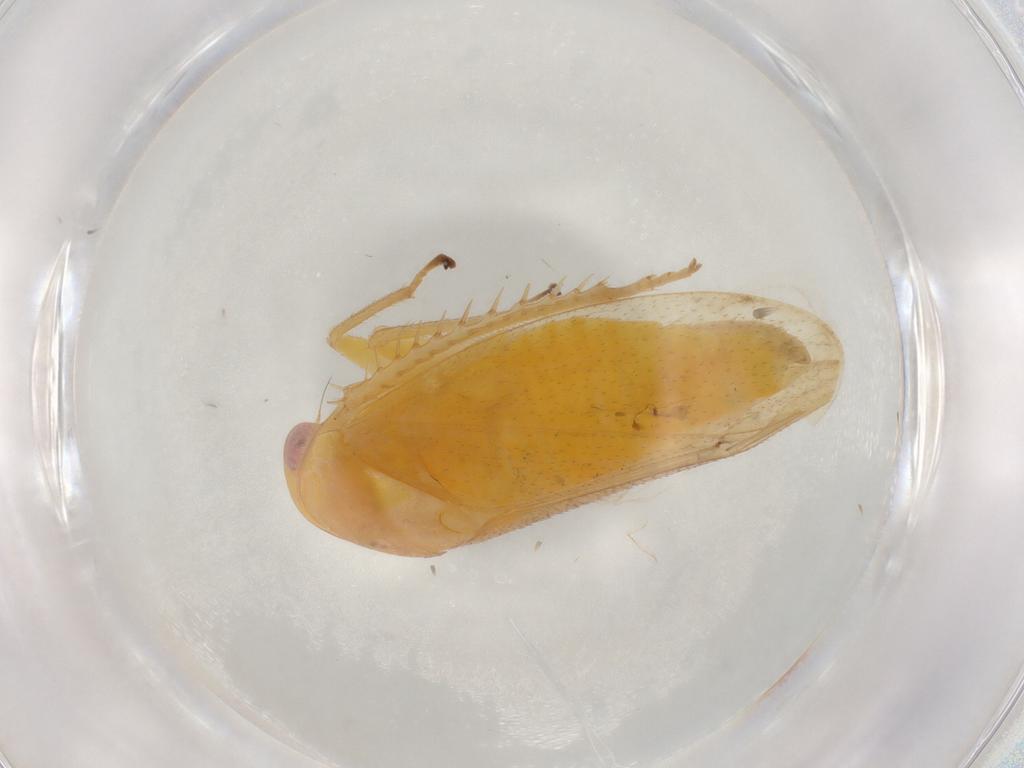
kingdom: Animalia
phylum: Arthropoda
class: Insecta
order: Hemiptera
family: Cicadellidae
